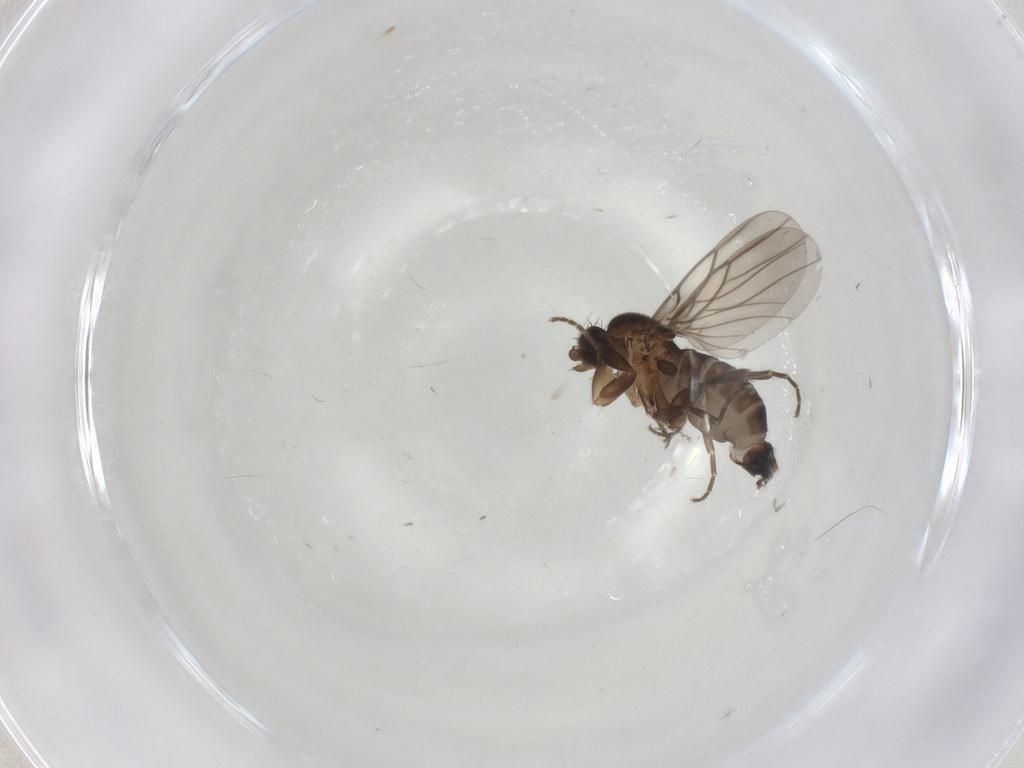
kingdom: Animalia
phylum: Arthropoda
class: Insecta
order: Diptera
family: Phoridae
